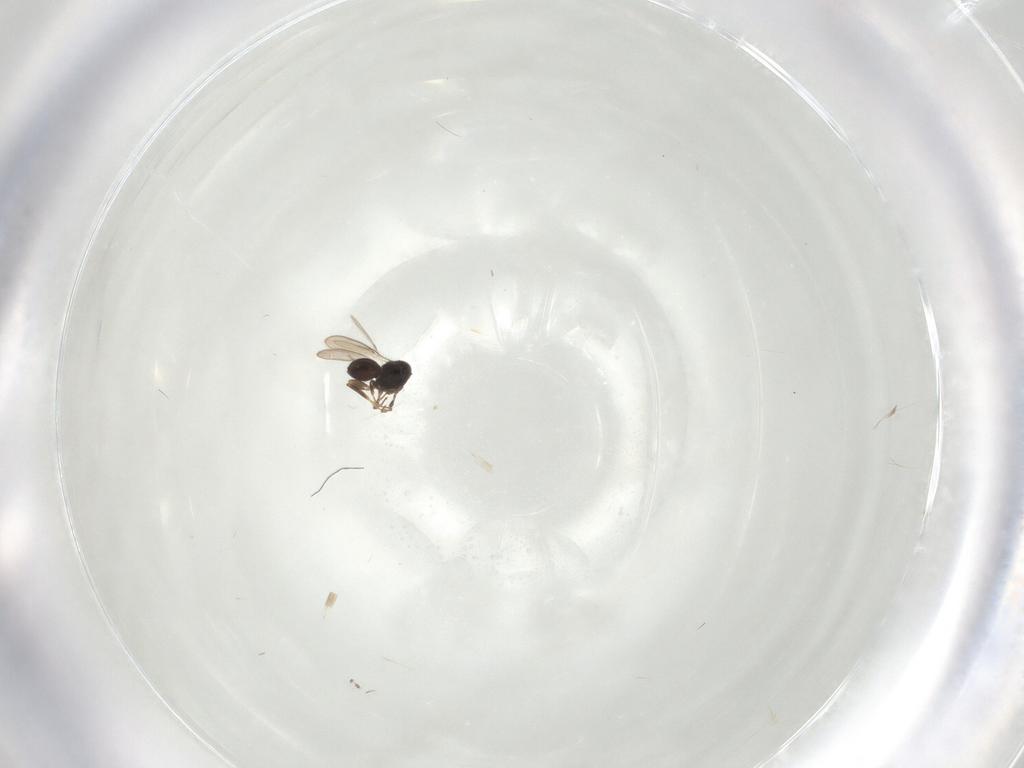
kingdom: Animalia
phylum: Arthropoda
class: Insecta
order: Hymenoptera
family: Scelionidae
